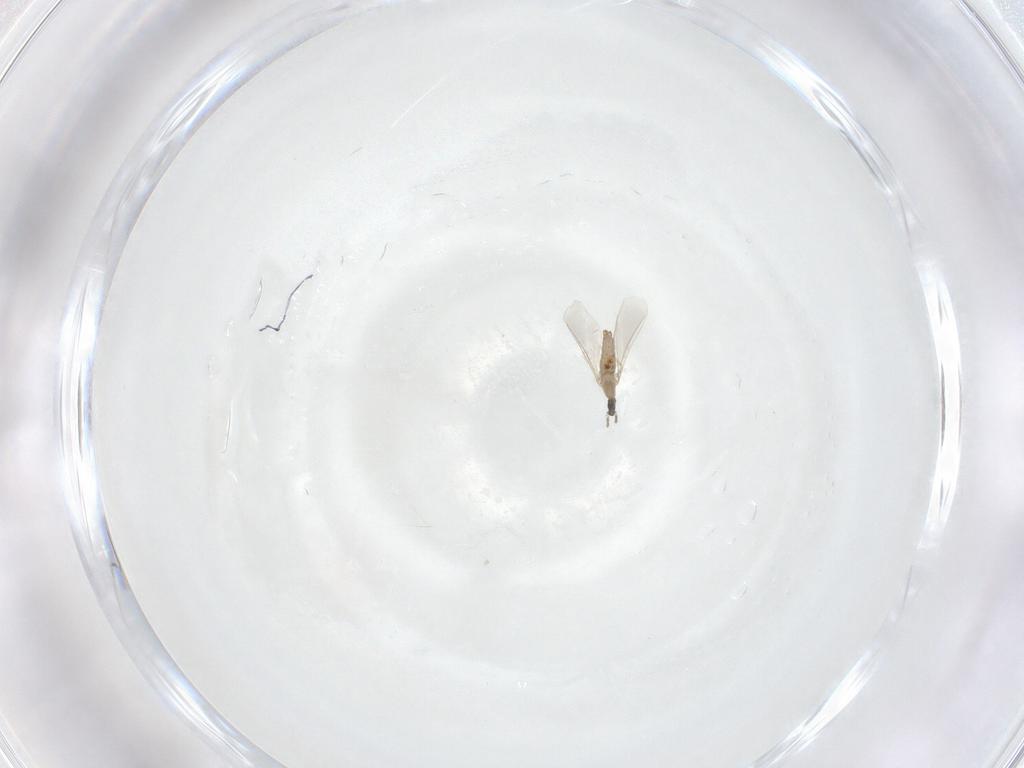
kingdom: Animalia
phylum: Arthropoda
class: Insecta
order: Diptera
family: Cecidomyiidae
